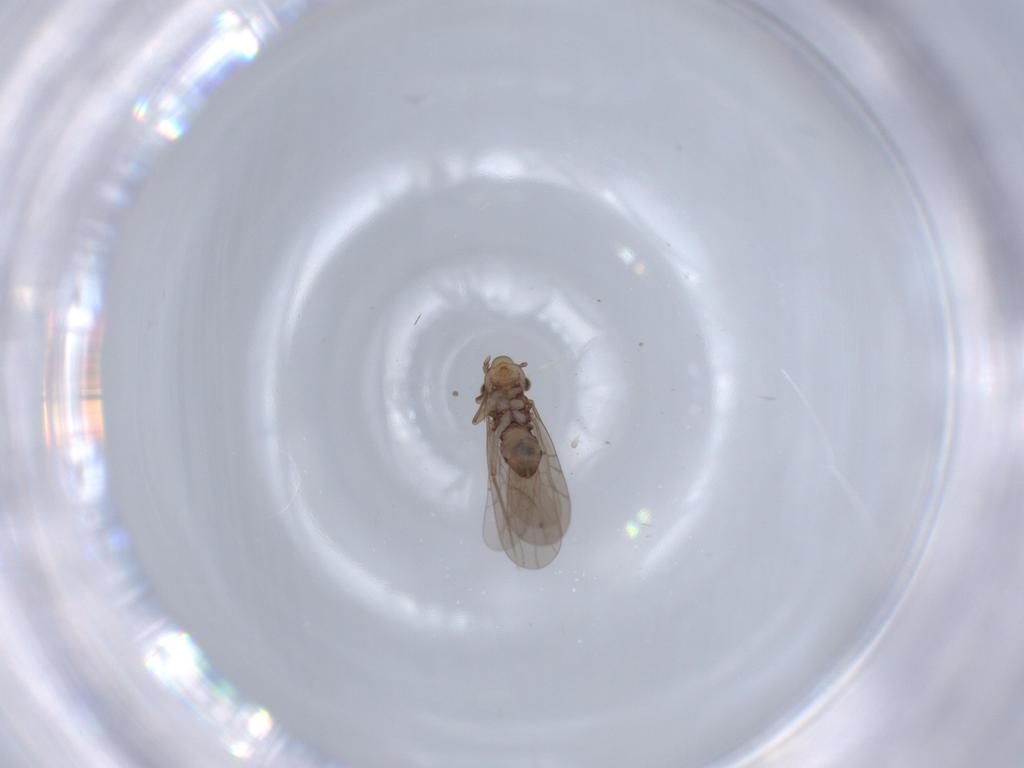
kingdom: Animalia
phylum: Arthropoda
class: Insecta
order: Psocodea
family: Lepidopsocidae
